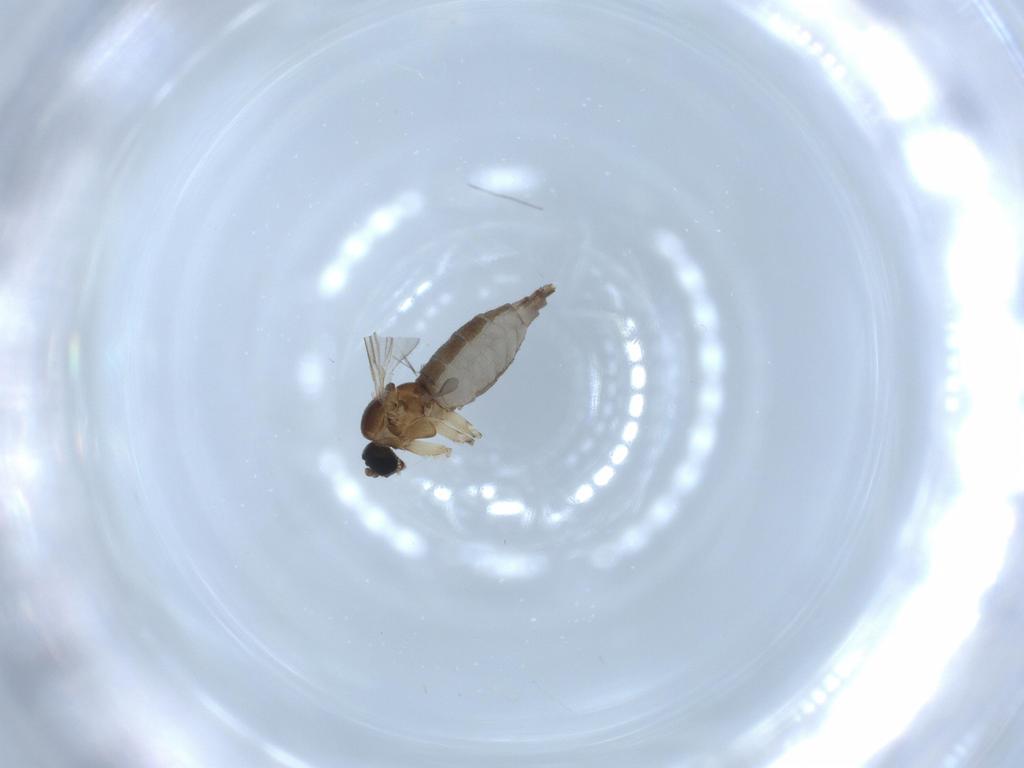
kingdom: Animalia
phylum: Arthropoda
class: Insecta
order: Diptera
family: Sciaridae
